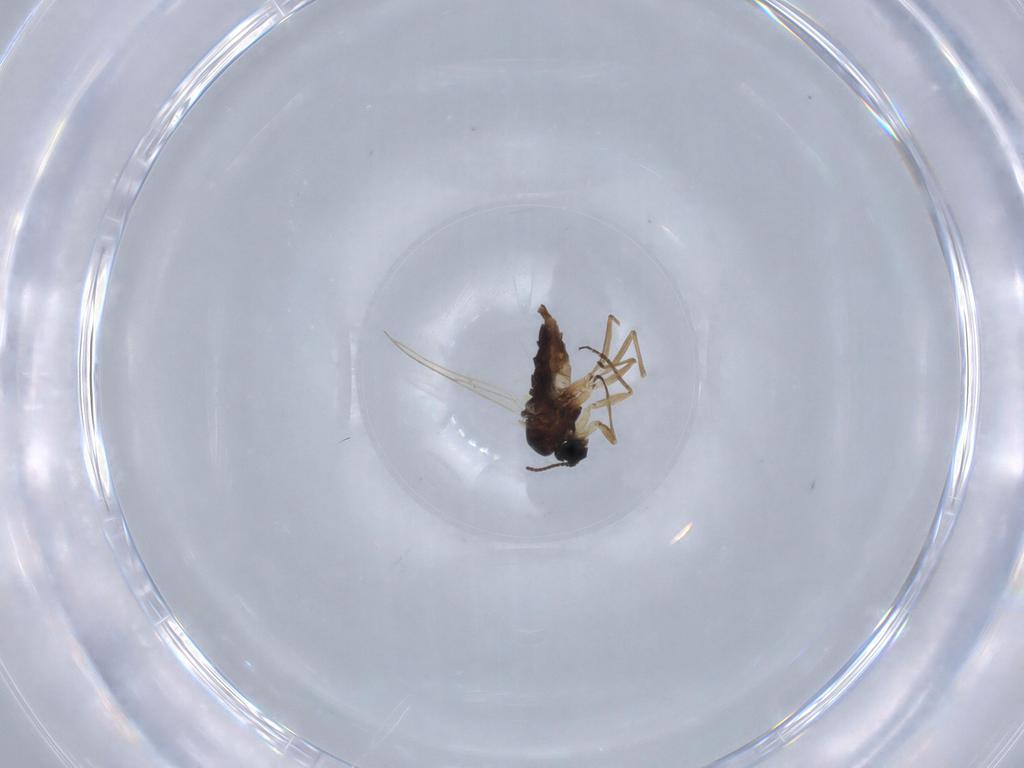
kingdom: Animalia
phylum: Arthropoda
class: Insecta
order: Diptera
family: Sciaridae
